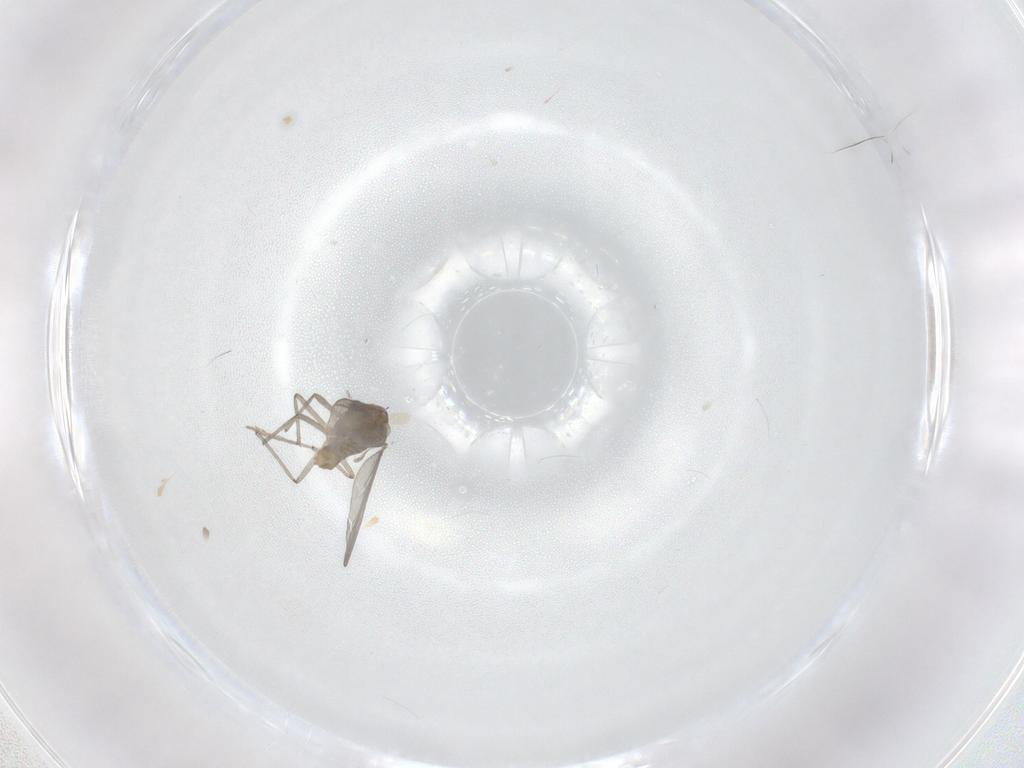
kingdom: Animalia
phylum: Arthropoda
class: Insecta
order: Diptera
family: Chironomidae
